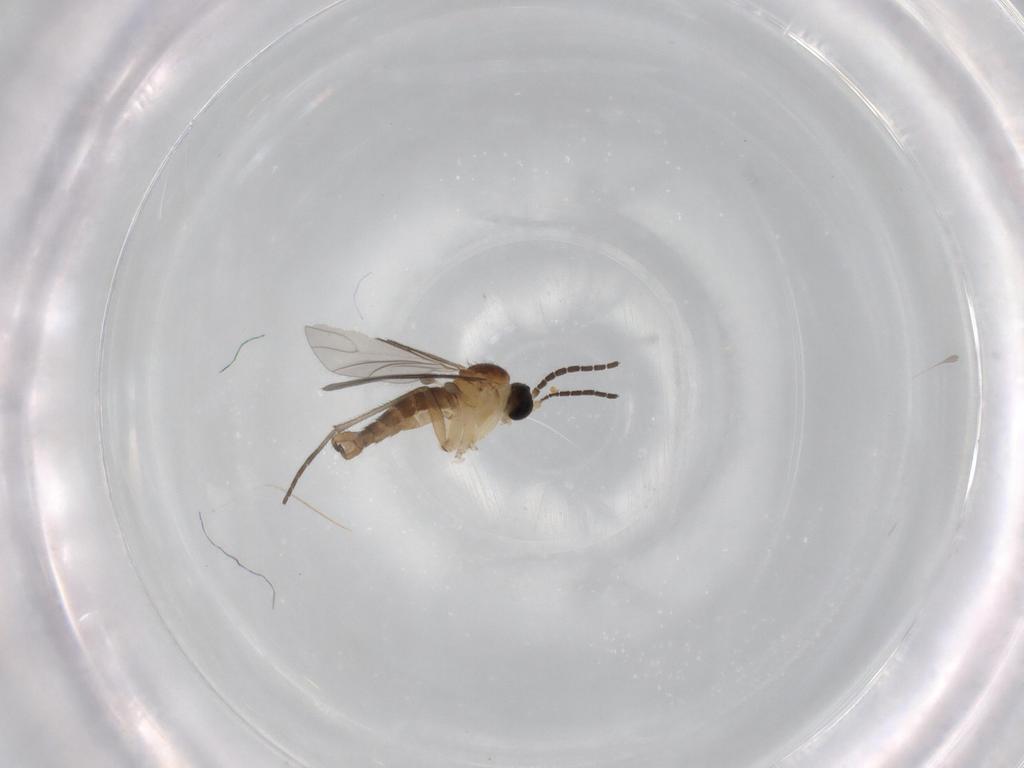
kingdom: Animalia
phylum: Arthropoda
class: Insecta
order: Diptera
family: Sciaridae
